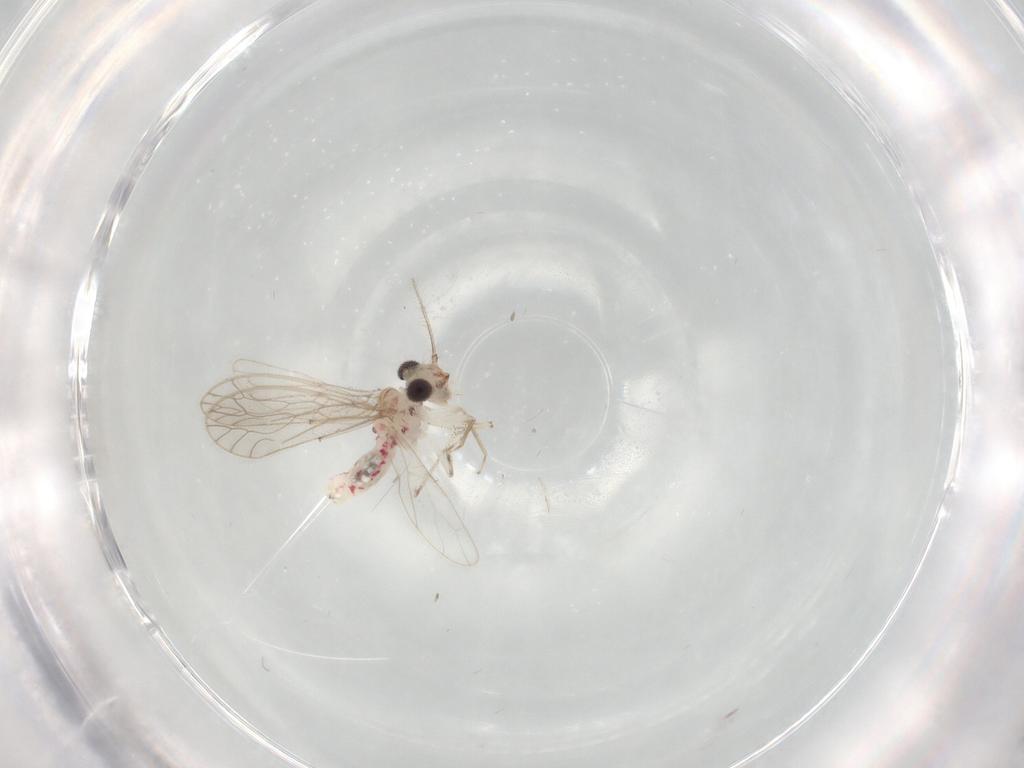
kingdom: Animalia
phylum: Arthropoda
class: Insecta
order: Psocodea
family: Caeciliusidae
